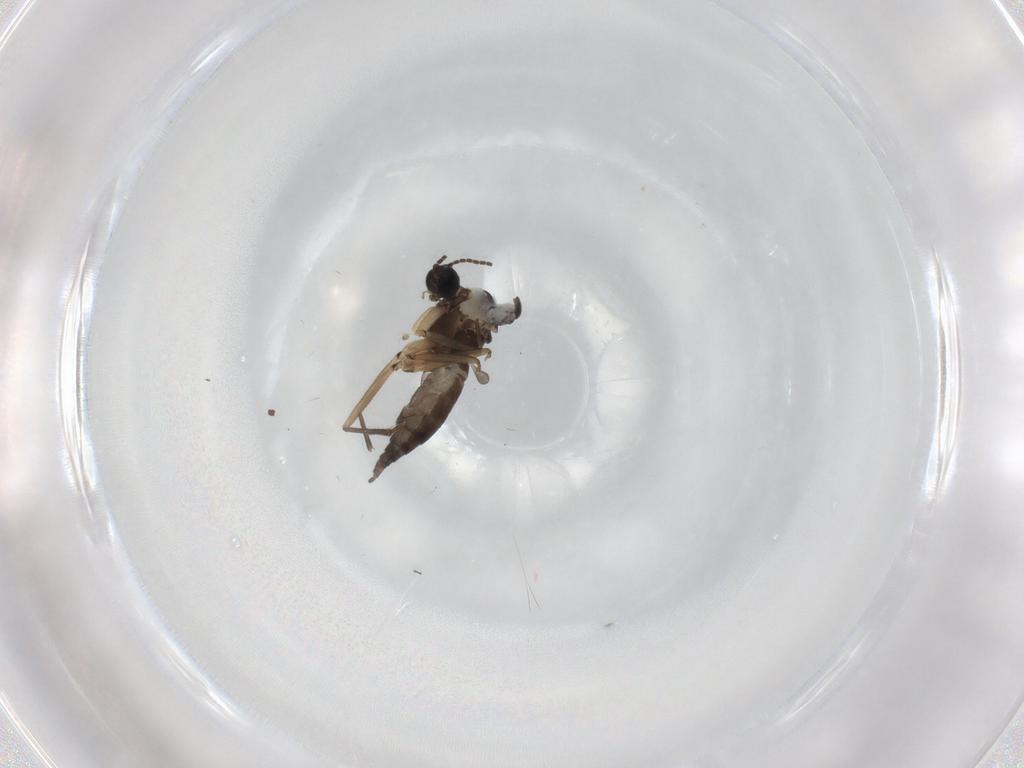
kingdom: Animalia
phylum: Arthropoda
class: Insecta
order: Diptera
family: Sciaridae
